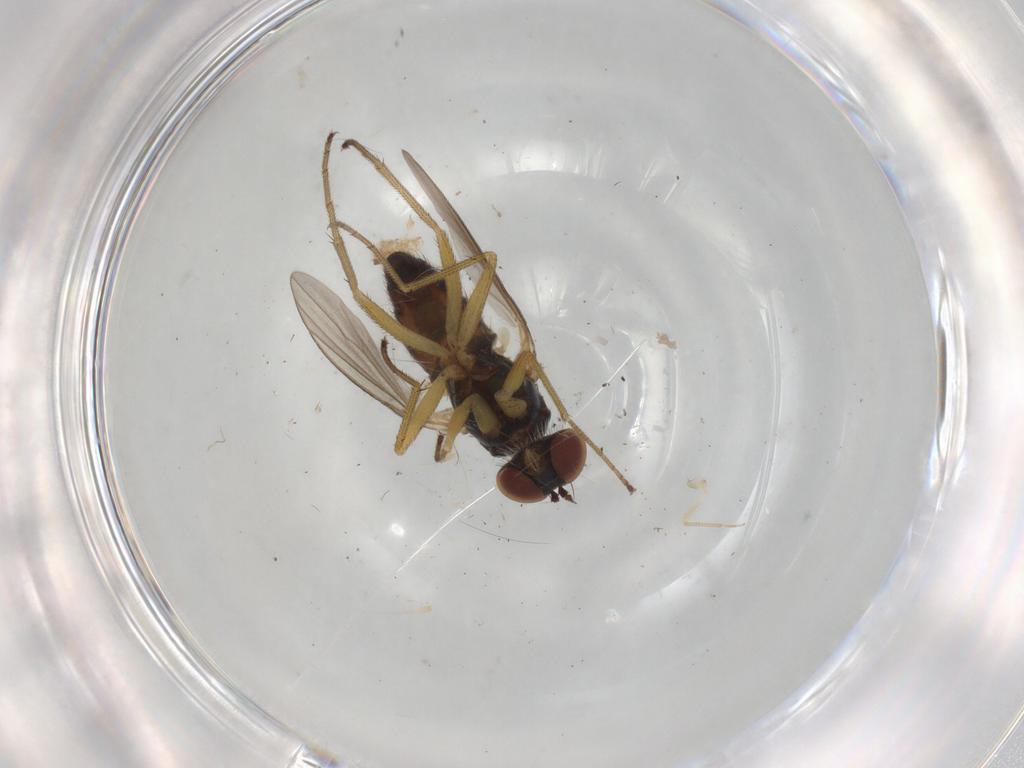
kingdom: Animalia
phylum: Arthropoda
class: Insecta
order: Diptera
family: Dolichopodidae
